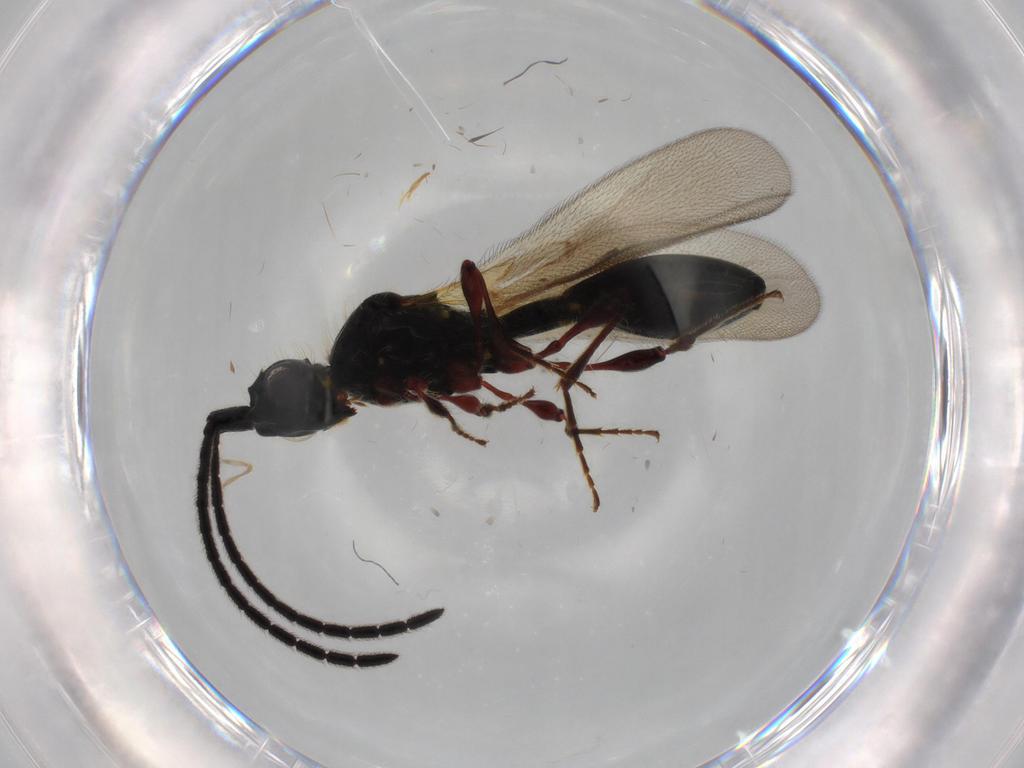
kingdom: Animalia
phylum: Arthropoda
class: Insecta
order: Hymenoptera
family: Diapriidae
